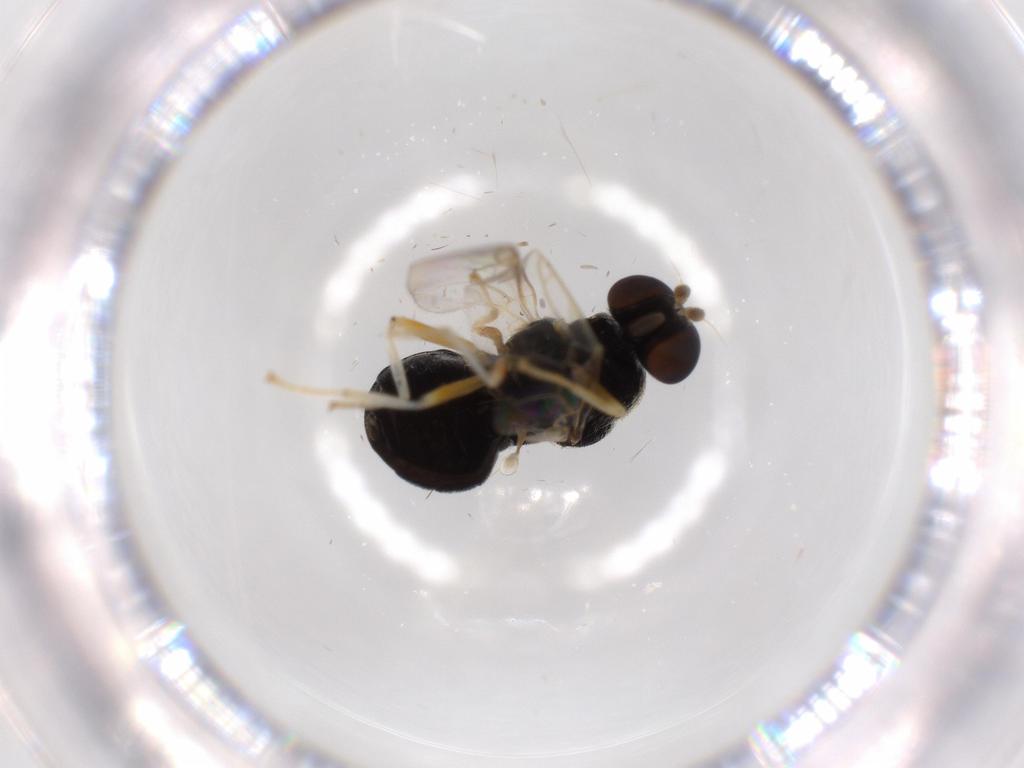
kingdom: Animalia
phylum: Arthropoda
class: Insecta
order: Diptera
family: Stratiomyidae
